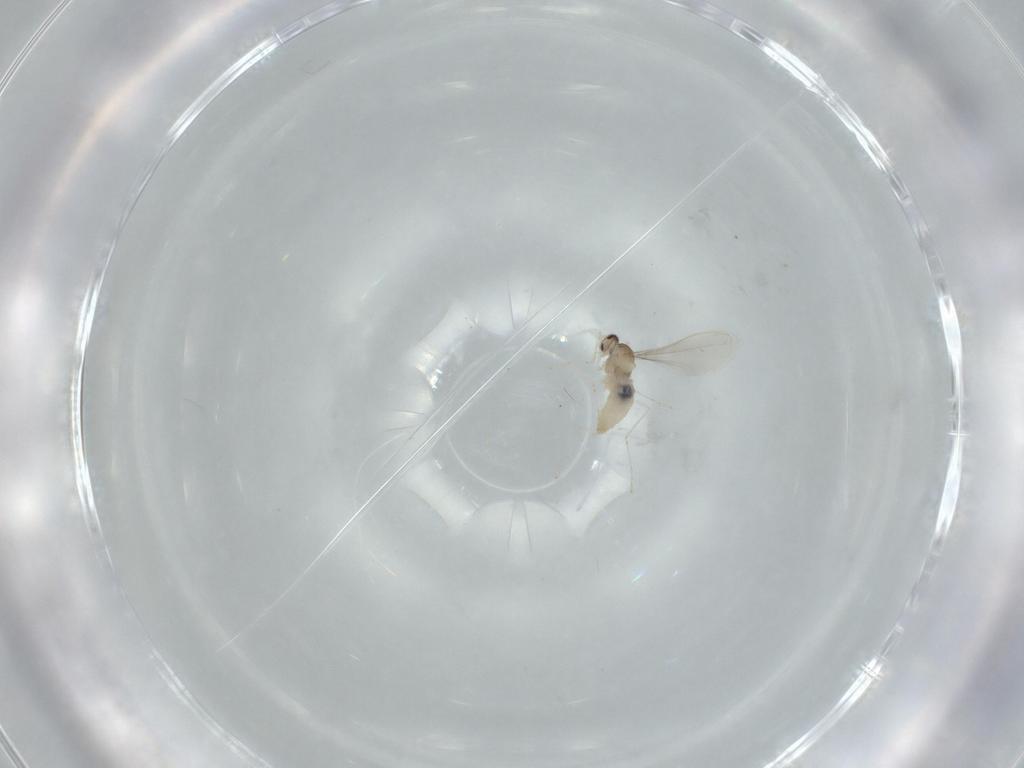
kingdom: Animalia
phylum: Arthropoda
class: Insecta
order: Diptera
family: Cecidomyiidae
